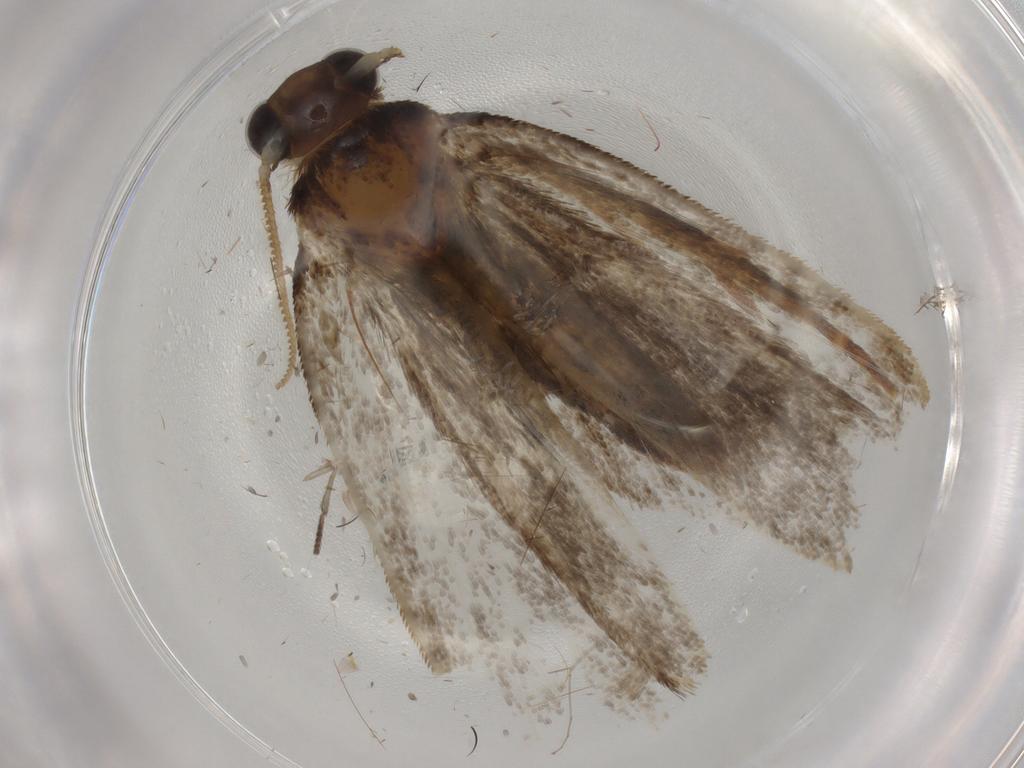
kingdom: Animalia
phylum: Arthropoda
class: Insecta
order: Lepidoptera
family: Tineidae
